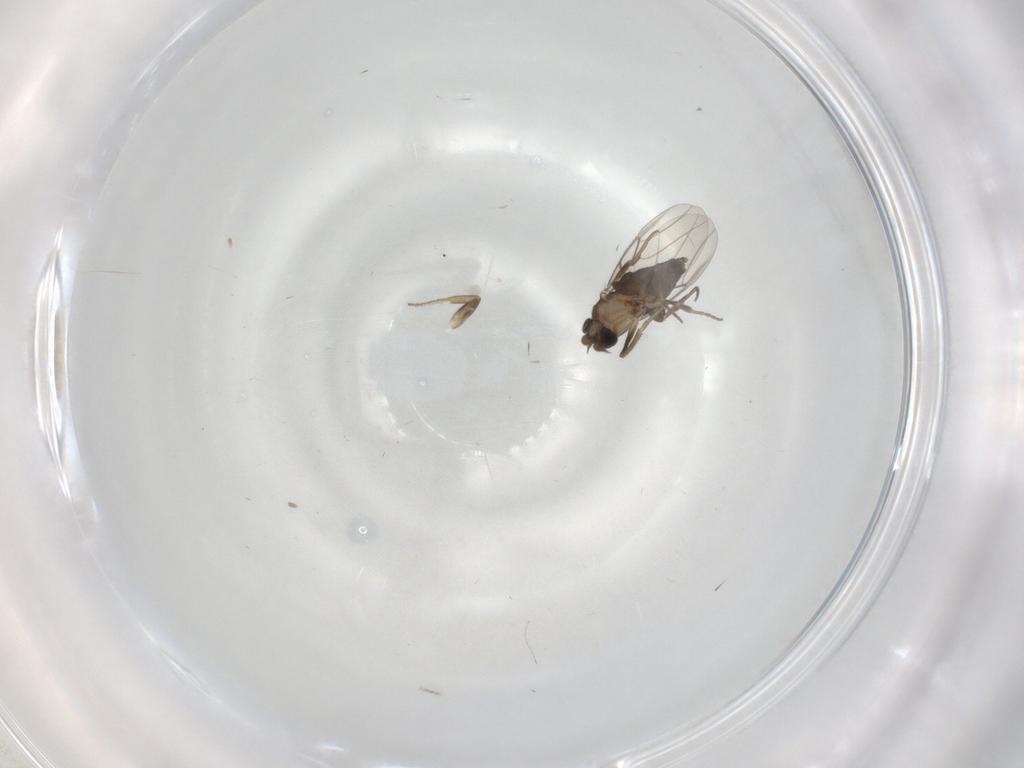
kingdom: Animalia
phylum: Arthropoda
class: Insecta
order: Diptera
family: Phoridae
